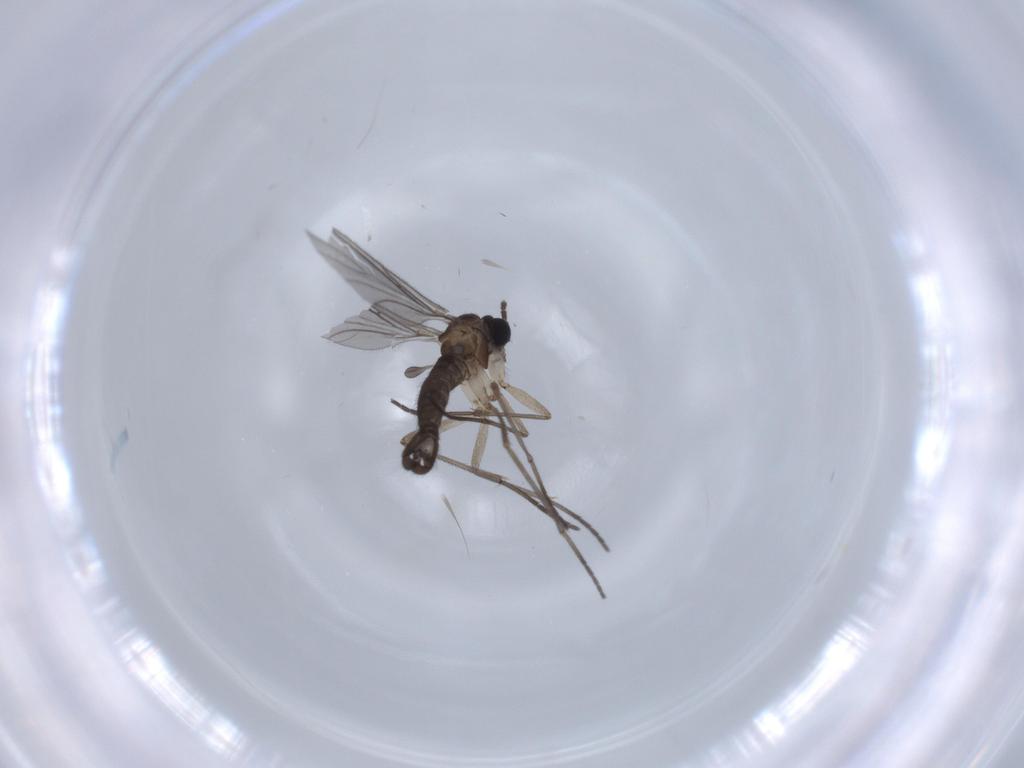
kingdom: Animalia
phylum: Arthropoda
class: Insecta
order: Diptera
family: Sciaridae
